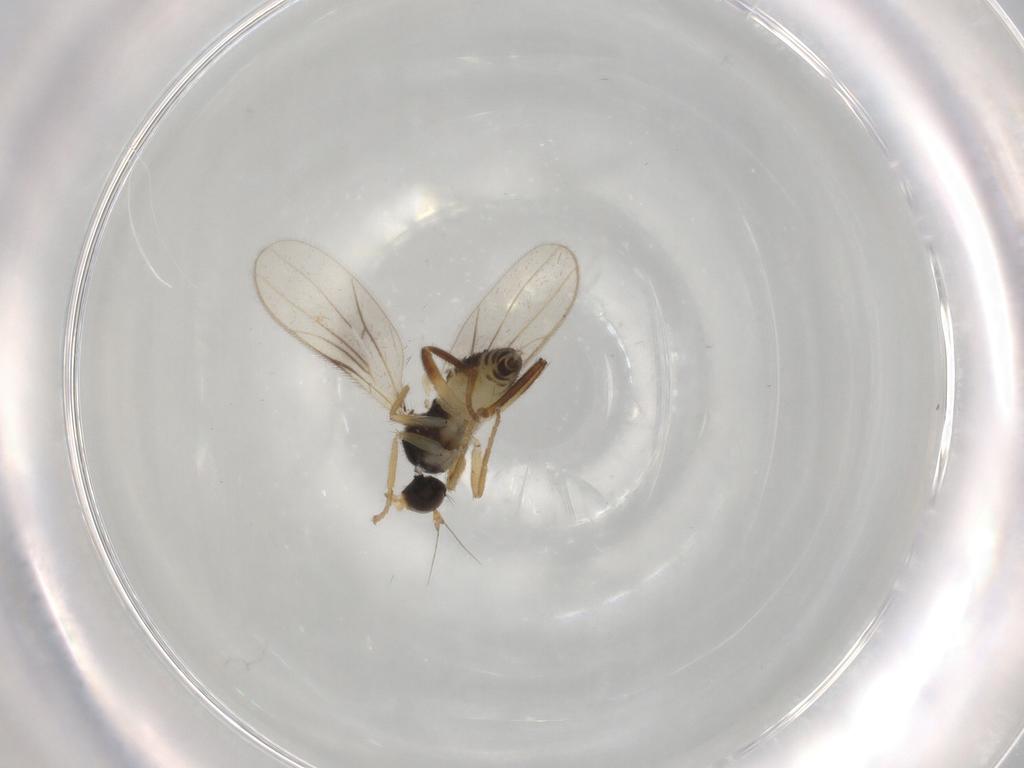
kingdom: Animalia
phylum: Arthropoda
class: Insecta
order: Diptera
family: Hybotidae
